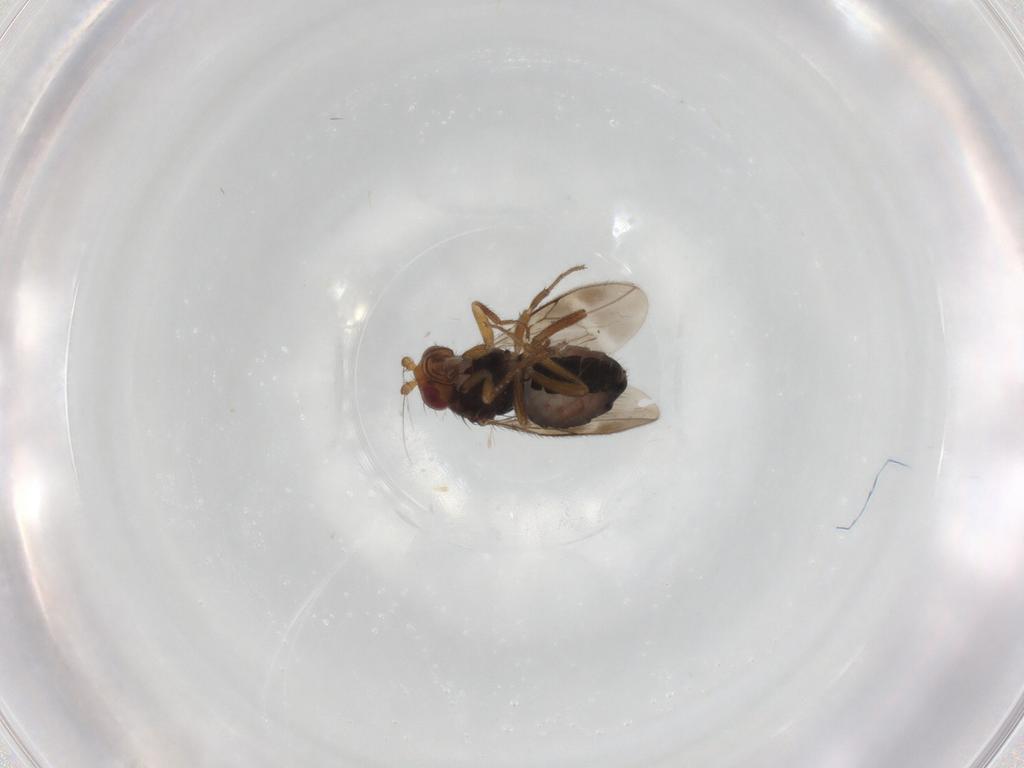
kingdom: Animalia
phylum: Arthropoda
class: Insecta
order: Diptera
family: Sphaeroceridae
